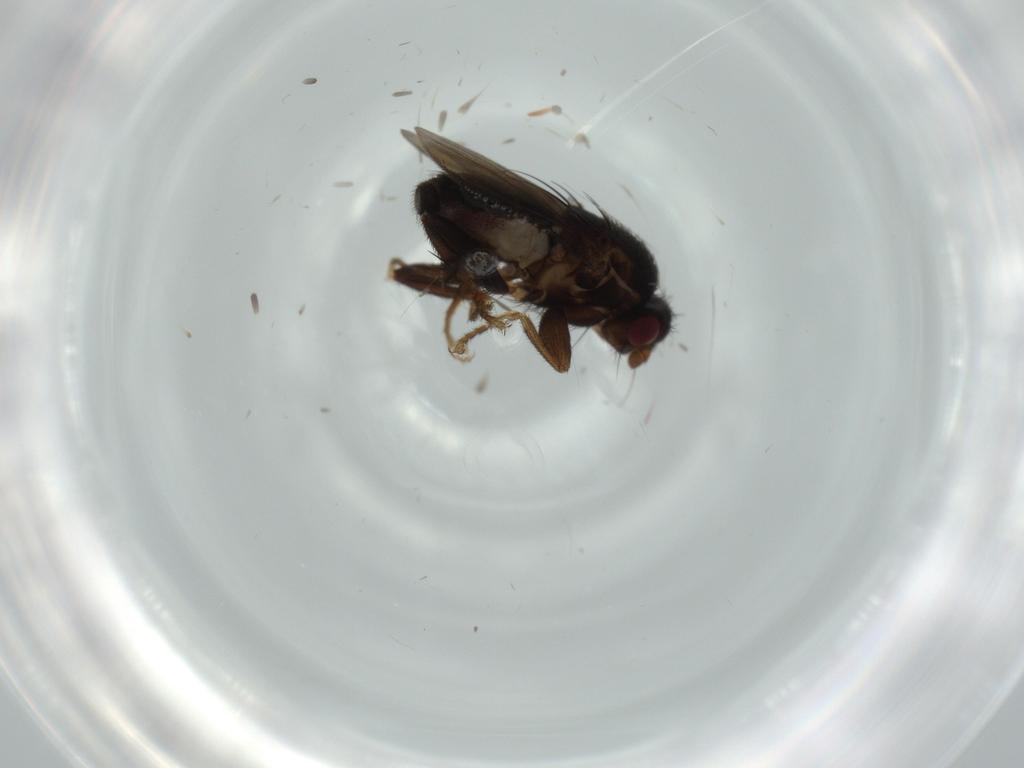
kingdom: Animalia
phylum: Arthropoda
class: Insecta
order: Diptera
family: Sphaeroceridae
